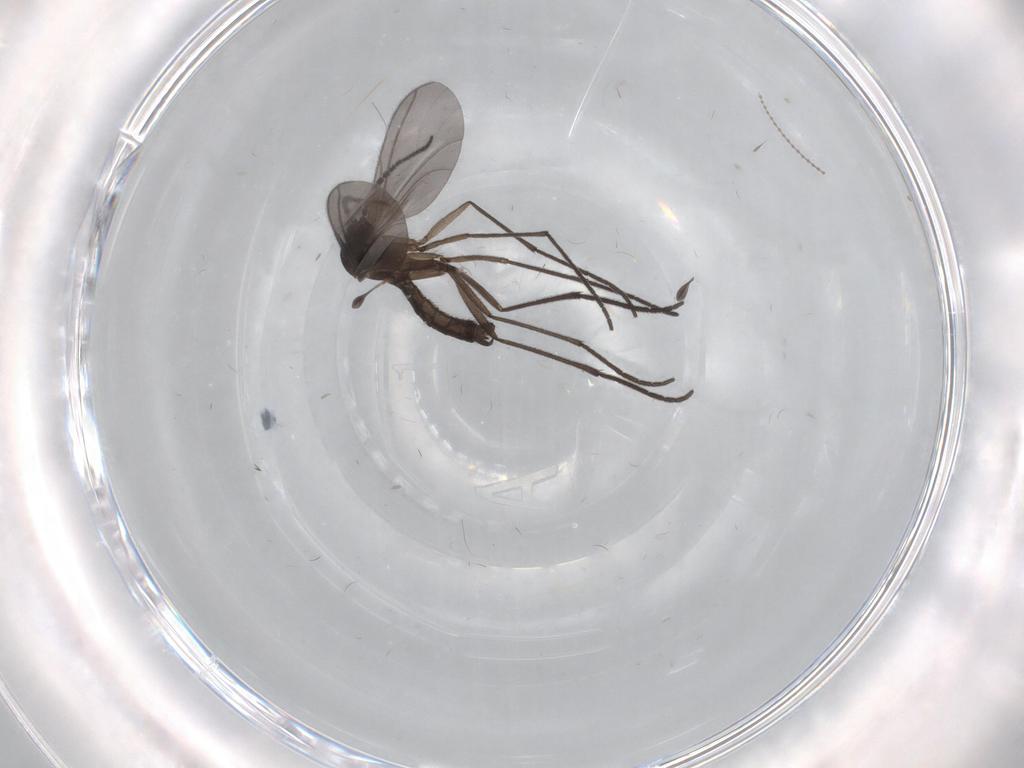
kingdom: Animalia
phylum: Arthropoda
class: Insecta
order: Diptera
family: Sciaridae
